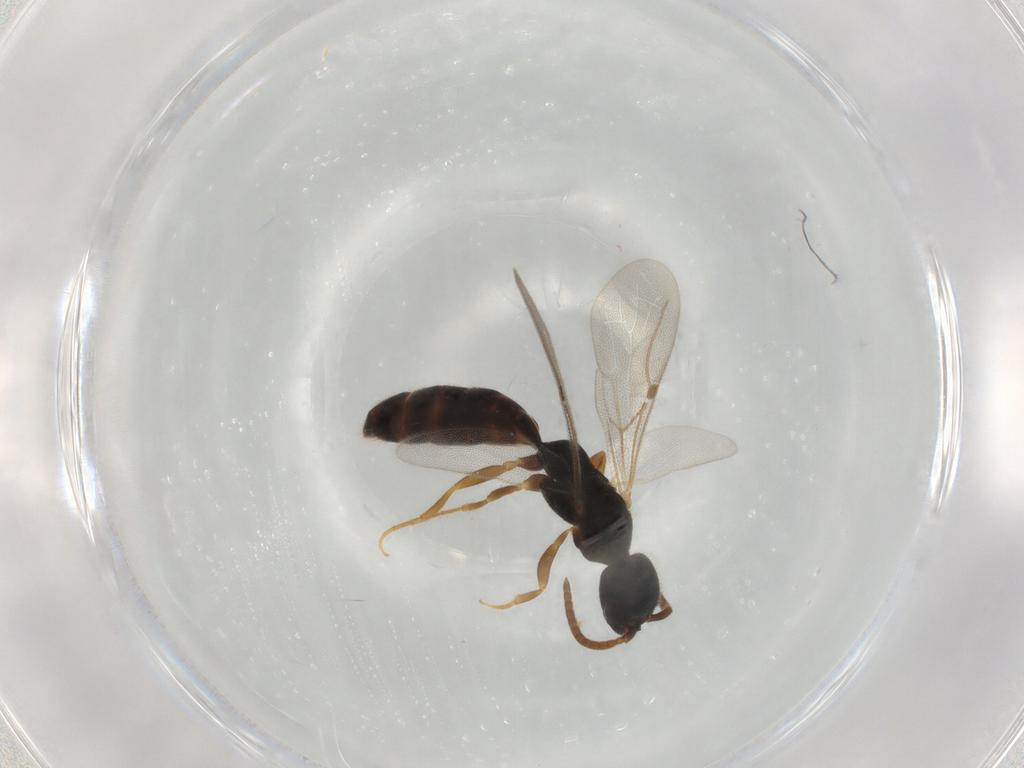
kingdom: Animalia
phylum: Arthropoda
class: Insecta
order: Hymenoptera
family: Bethylidae
